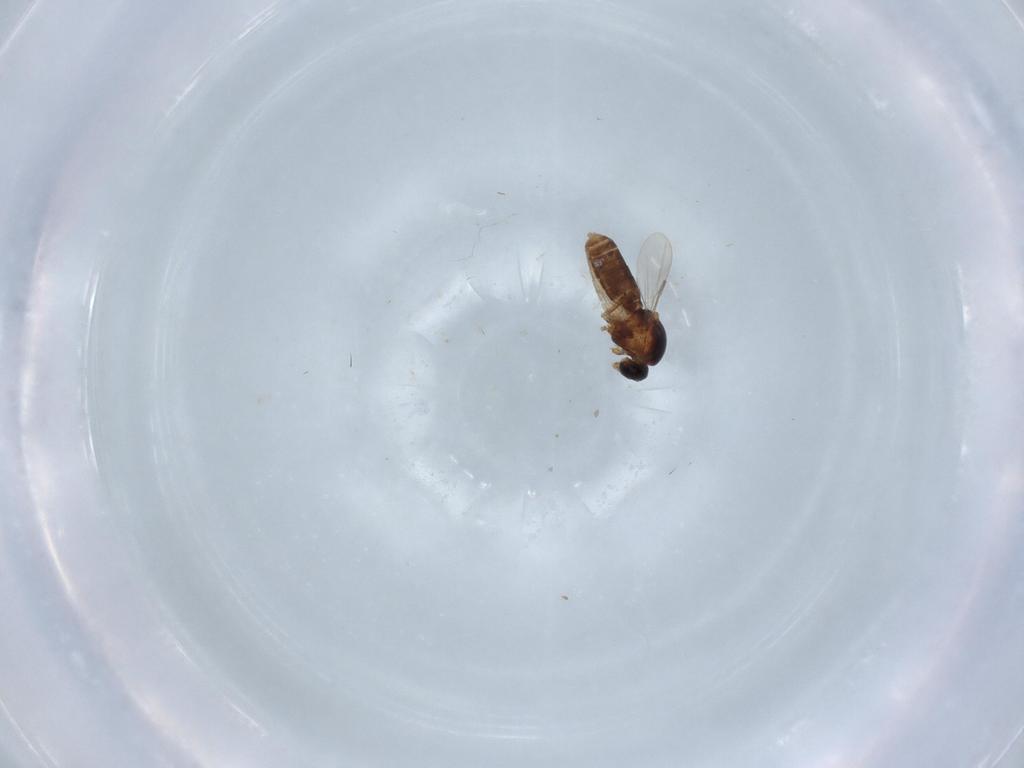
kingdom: Animalia
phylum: Arthropoda
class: Insecta
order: Diptera
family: Ceratopogonidae
